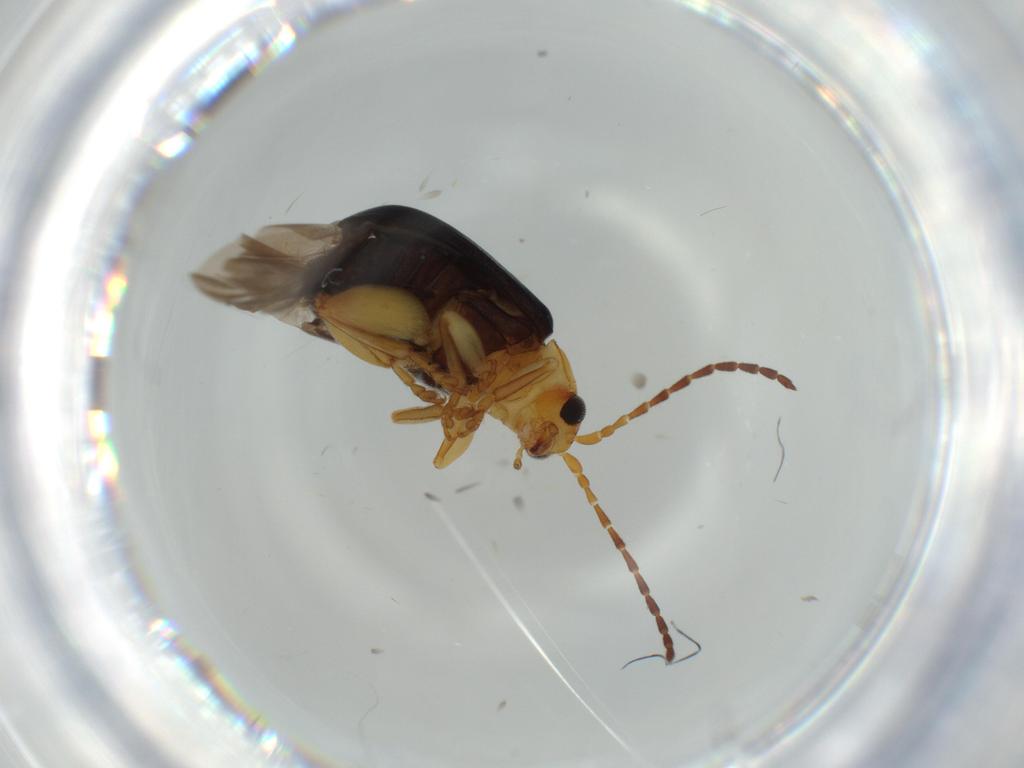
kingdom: Animalia
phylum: Arthropoda
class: Insecta
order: Coleoptera
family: Chrysomelidae
